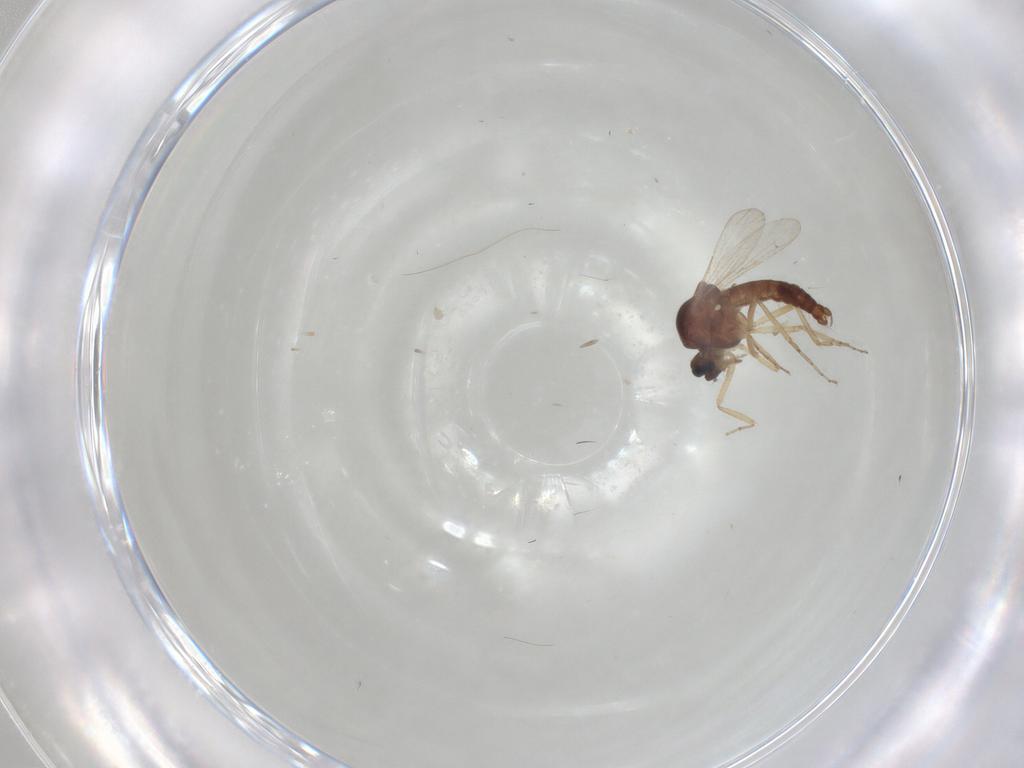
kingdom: Animalia
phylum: Arthropoda
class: Insecta
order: Diptera
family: Ceratopogonidae
